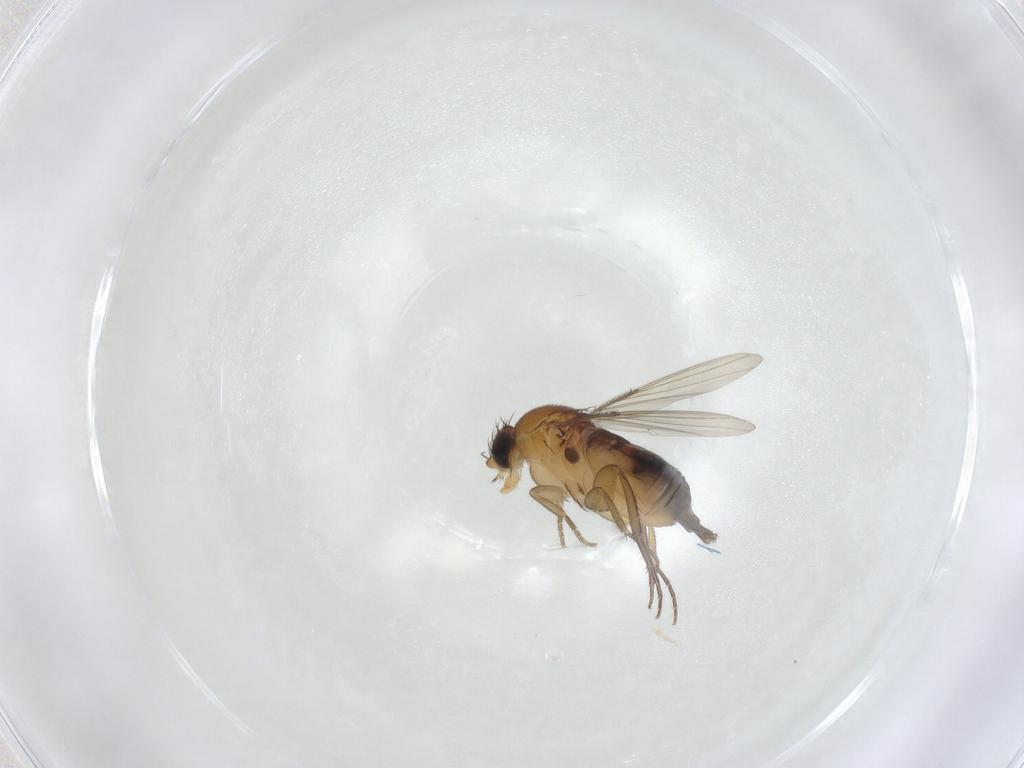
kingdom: Animalia
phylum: Arthropoda
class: Insecta
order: Diptera
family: Phoridae
